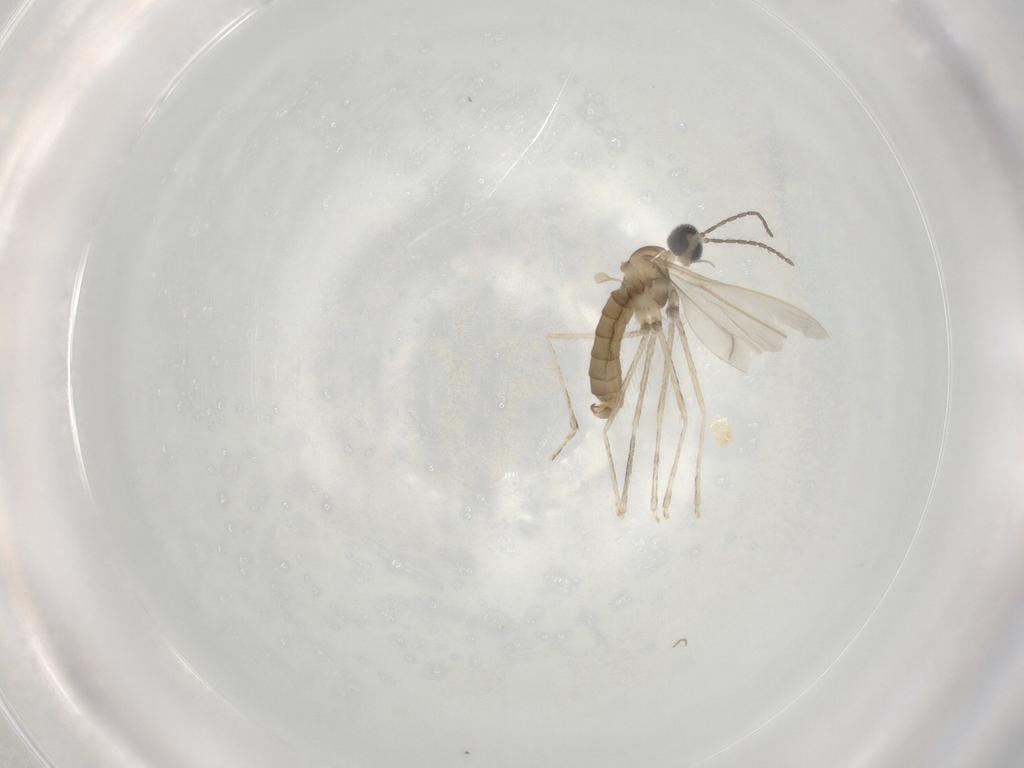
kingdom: Animalia
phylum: Arthropoda
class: Insecta
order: Diptera
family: Cecidomyiidae
